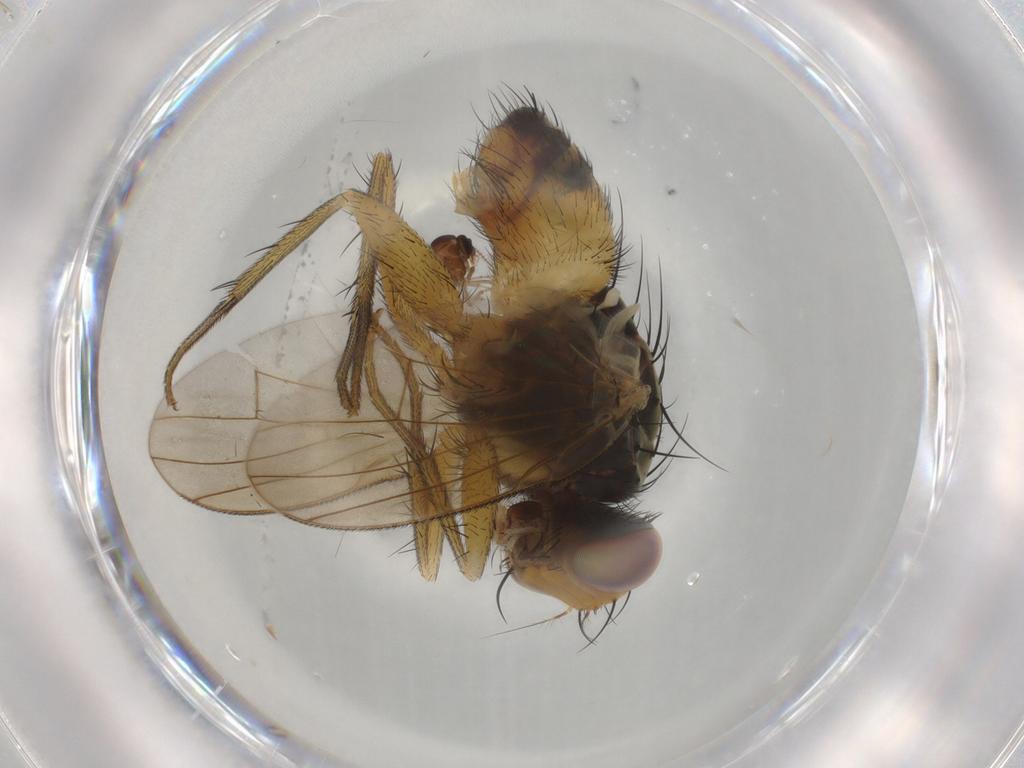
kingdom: Animalia
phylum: Arthropoda
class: Insecta
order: Diptera
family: Muscidae
